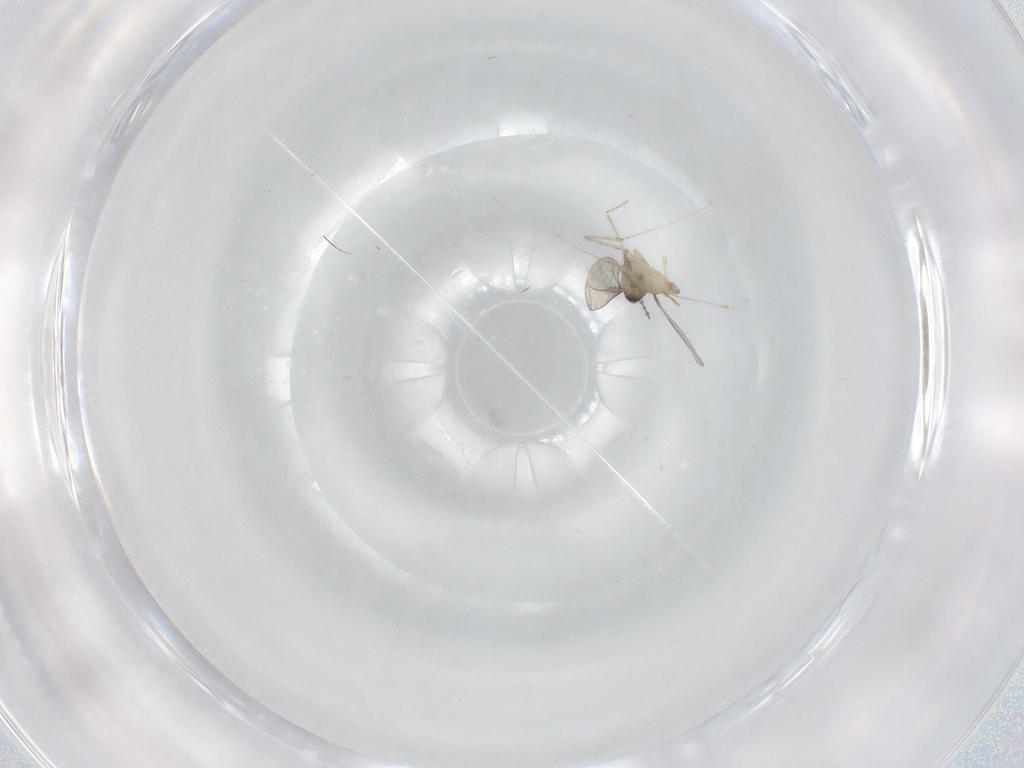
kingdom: Animalia
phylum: Arthropoda
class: Insecta
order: Diptera
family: Cecidomyiidae
